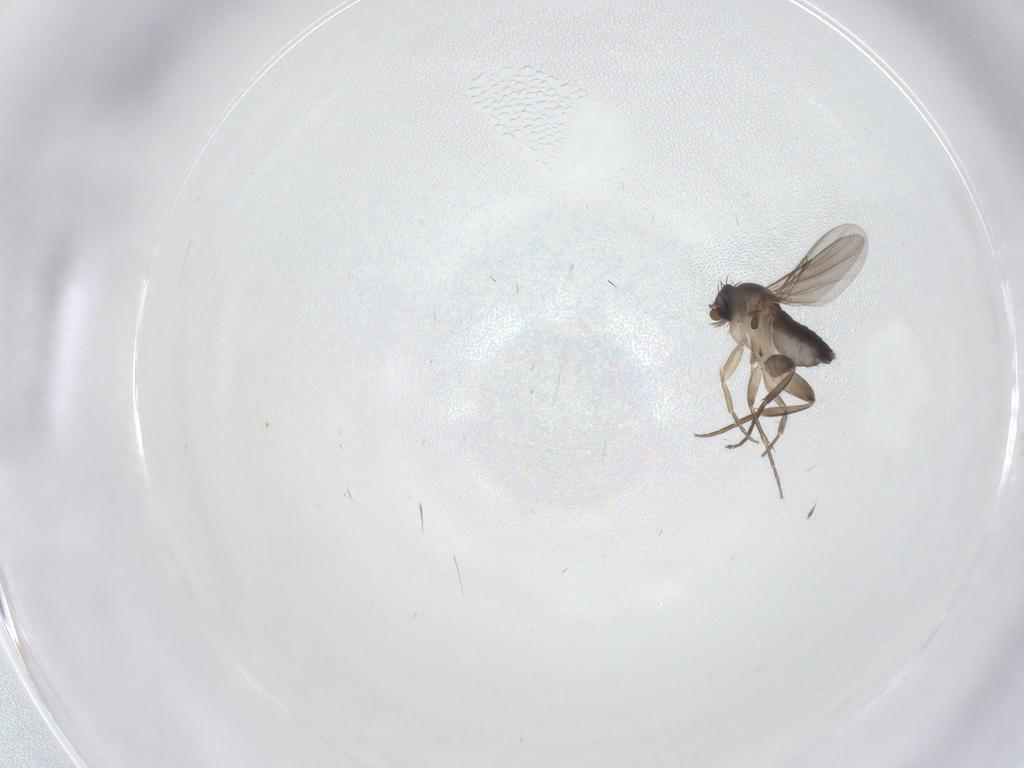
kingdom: Animalia
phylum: Arthropoda
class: Insecta
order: Diptera
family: Phoridae
